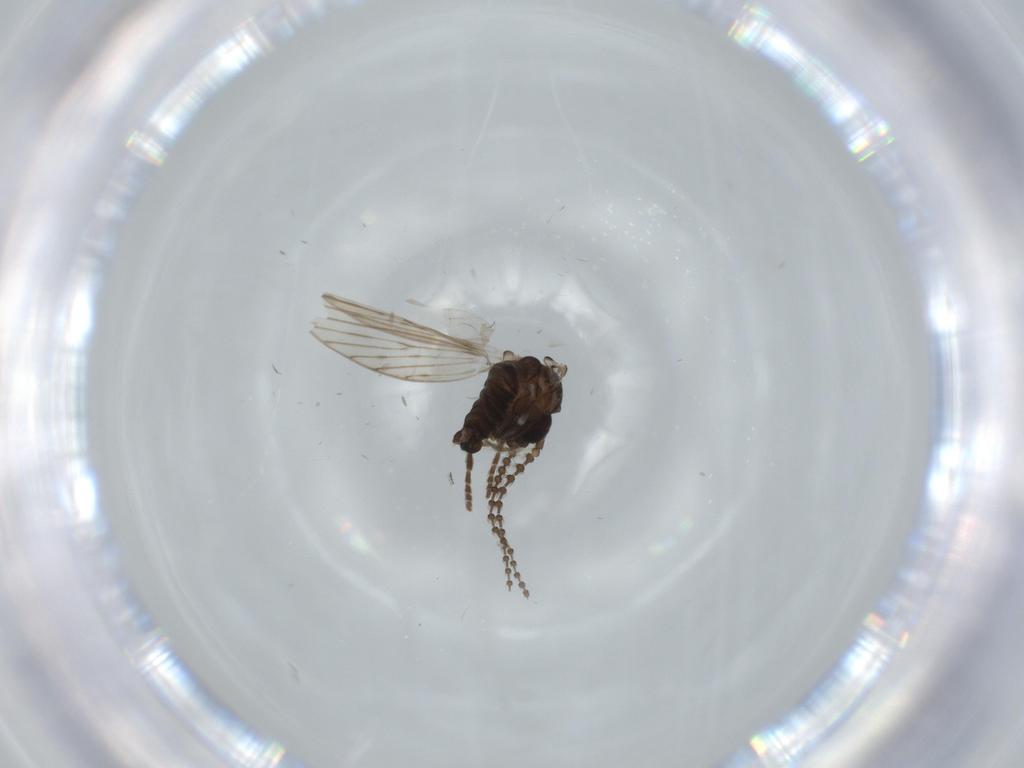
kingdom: Animalia
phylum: Arthropoda
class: Insecta
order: Diptera
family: Psychodidae
